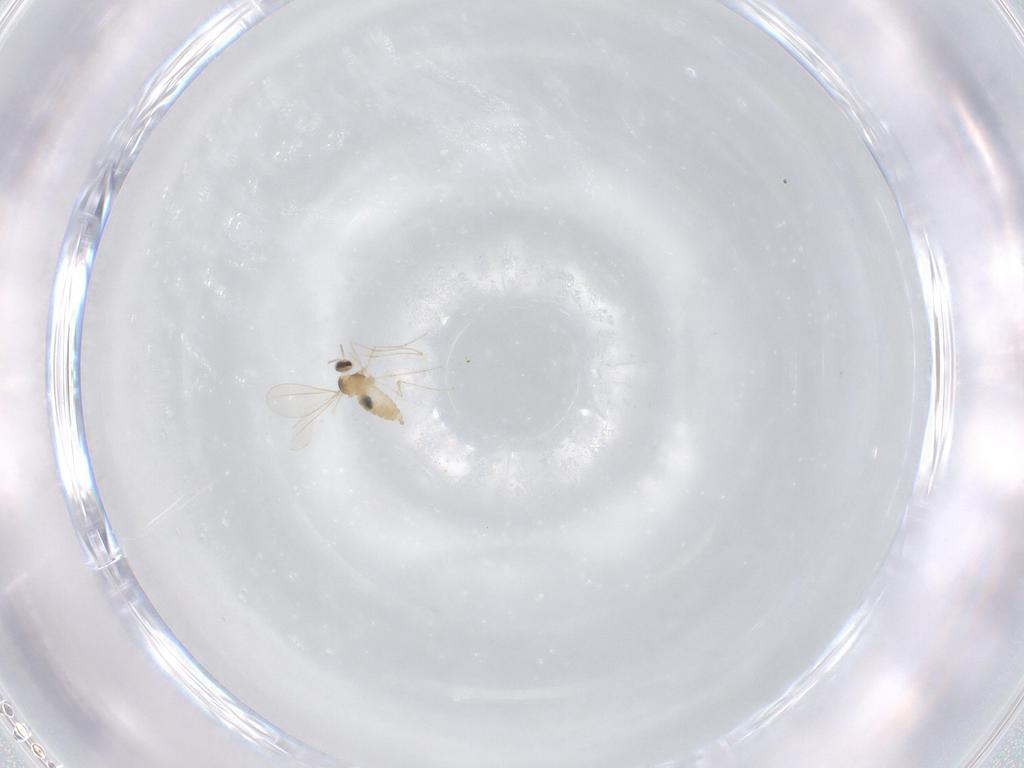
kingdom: Animalia
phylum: Arthropoda
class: Insecta
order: Diptera
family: Cecidomyiidae
